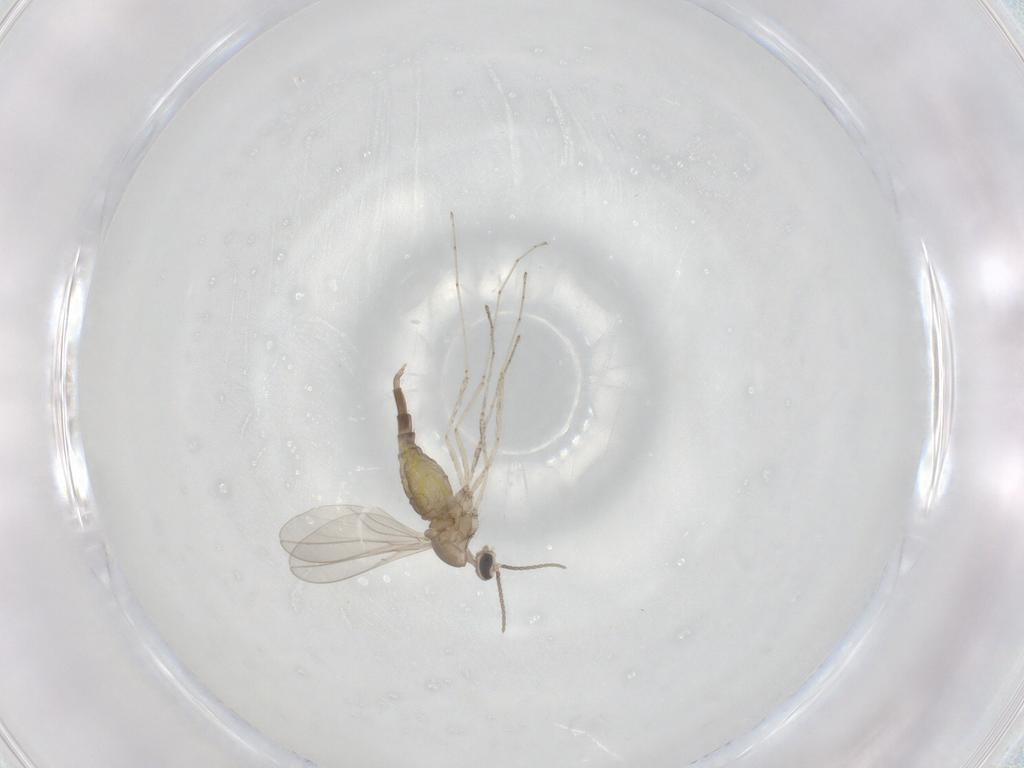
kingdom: Animalia
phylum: Arthropoda
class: Insecta
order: Diptera
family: Cecidomyiidae
